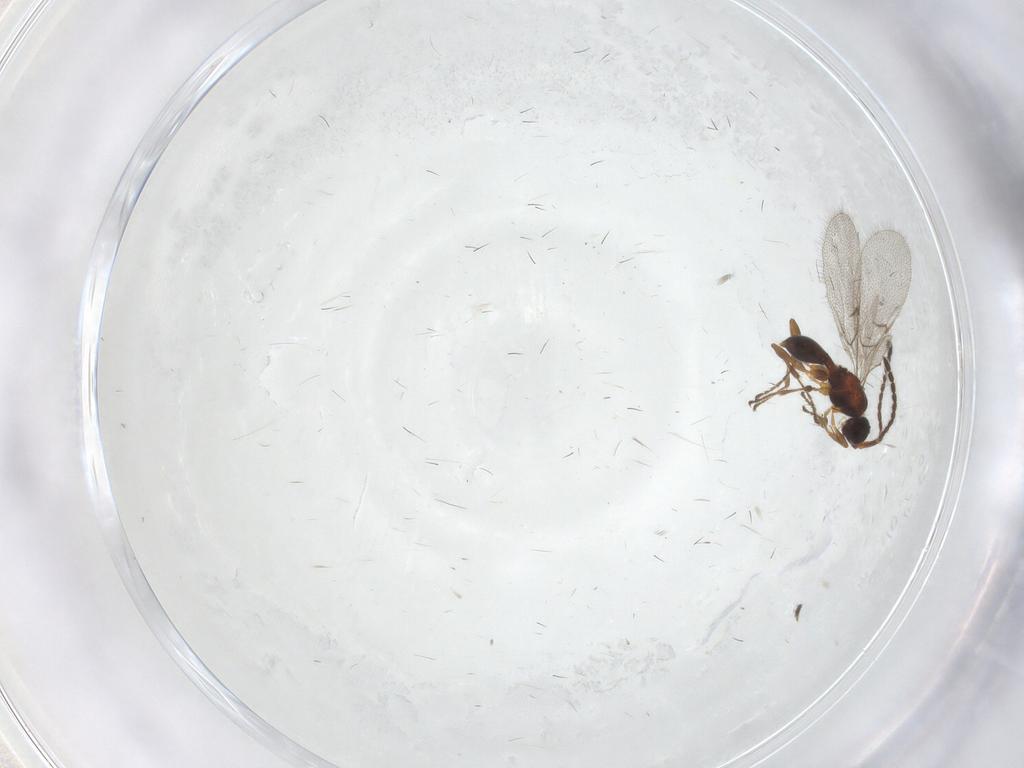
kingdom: Animalia
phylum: Arthropoda
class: Insecta
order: Hymenoptera
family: Diapriidae
